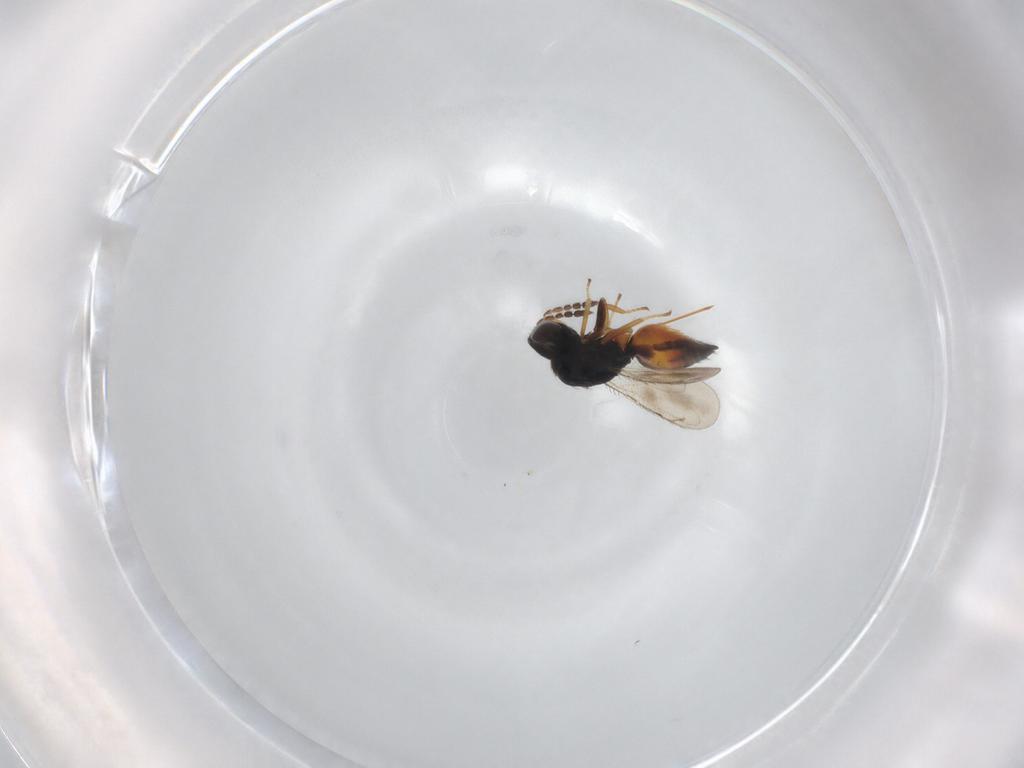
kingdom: Animalia
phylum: Arthropoda
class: Insecta
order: Hymenoptera
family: Eulophidae
